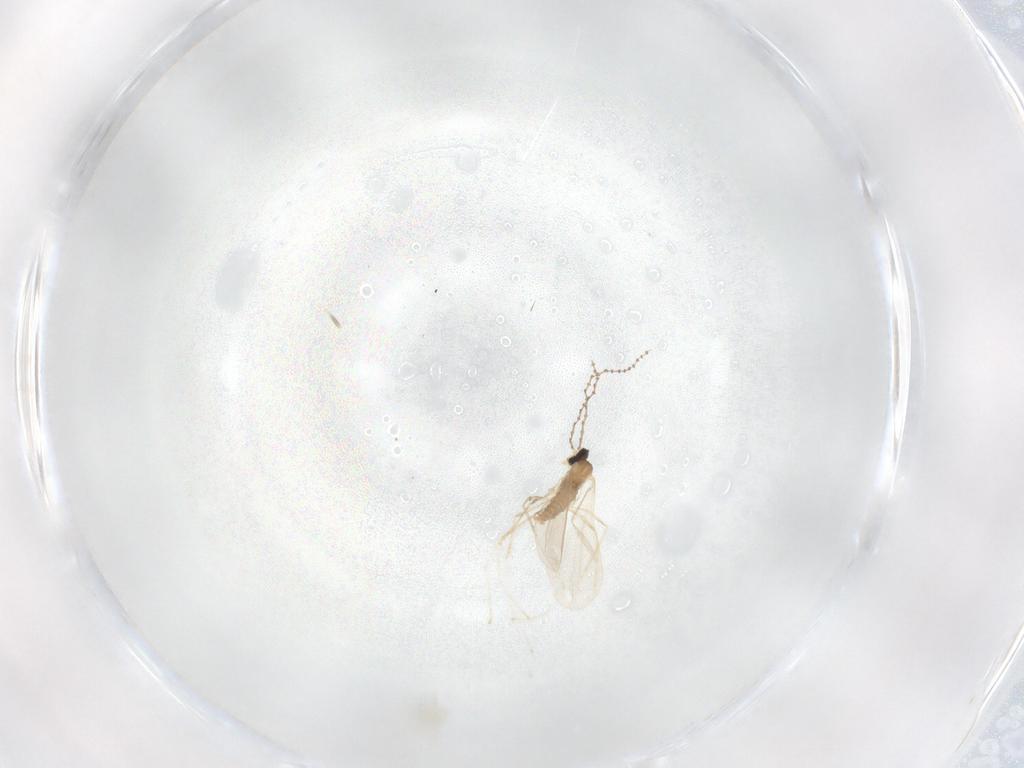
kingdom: Animalia
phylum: Arthropoda
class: Insecta
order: Diptera
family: Cecidomyiidae
